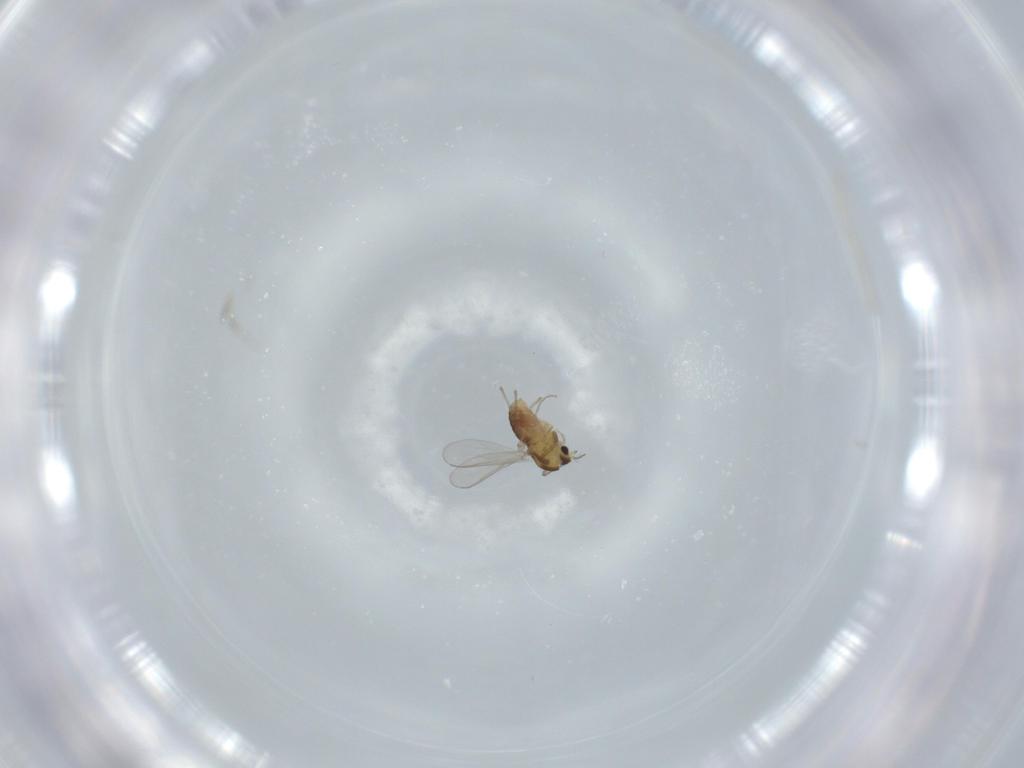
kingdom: Animalia
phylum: Arthropoda
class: Insecta
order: Diptera
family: Chironomidae
